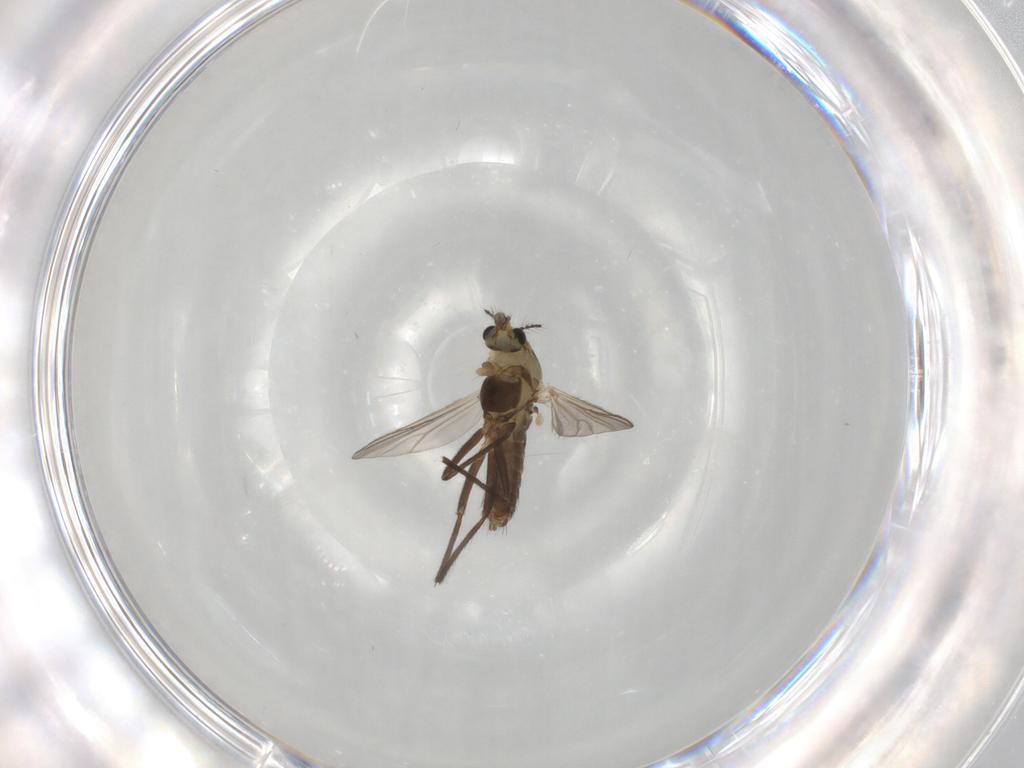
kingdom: Animalia
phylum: Arthropoda
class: Insecta
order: Diptera
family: Chironomidae
